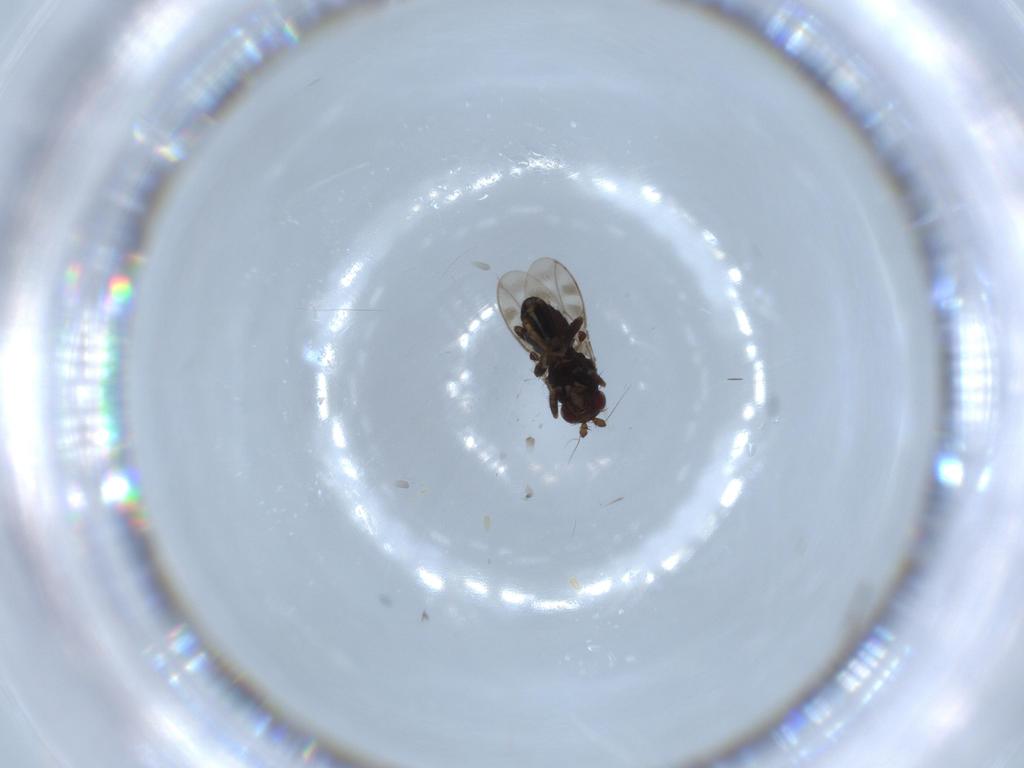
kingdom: Animalia
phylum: Arthropoda
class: Insecta
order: Diptera
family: Sphaeroceridae
